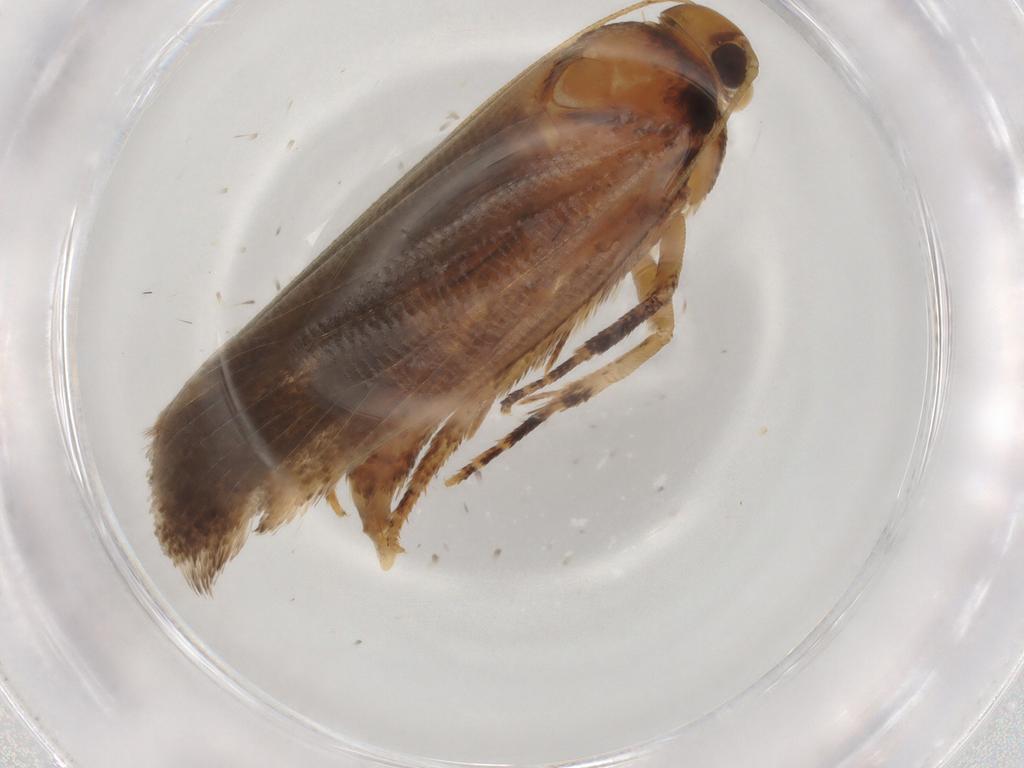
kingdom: Animalia
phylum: Arthropoda
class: Insecta
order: Lepidoptera
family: Gelechiidae
